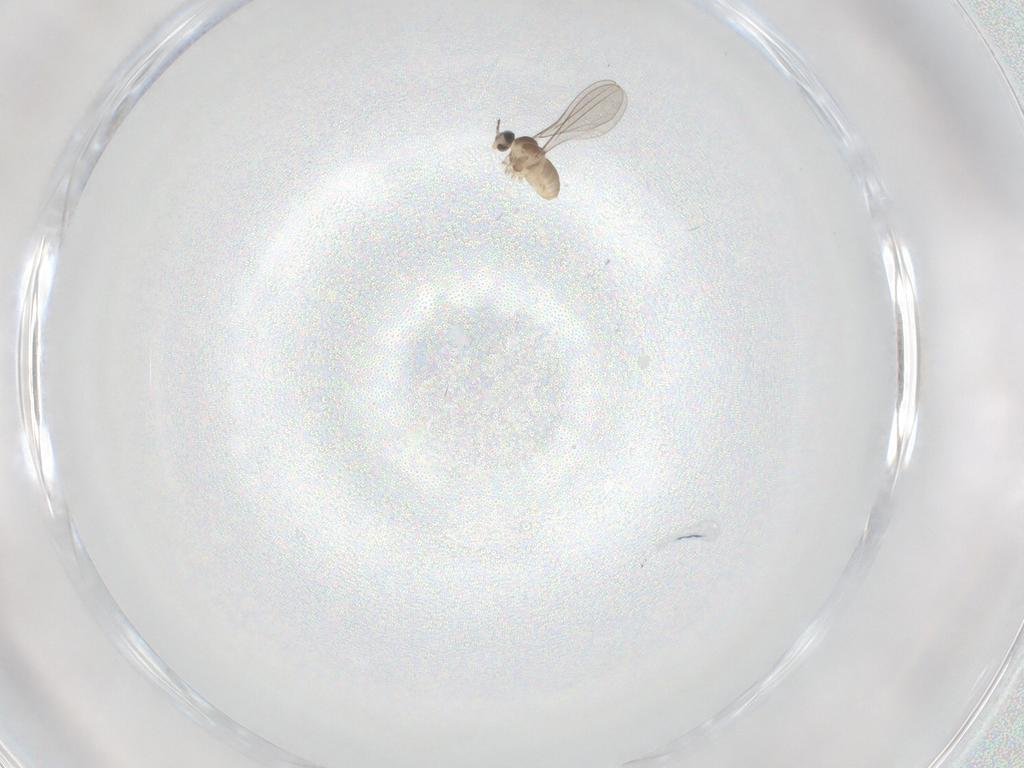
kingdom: Animalia
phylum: Arthropoda
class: Insecta
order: Diptera
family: Cecidomyiidae
